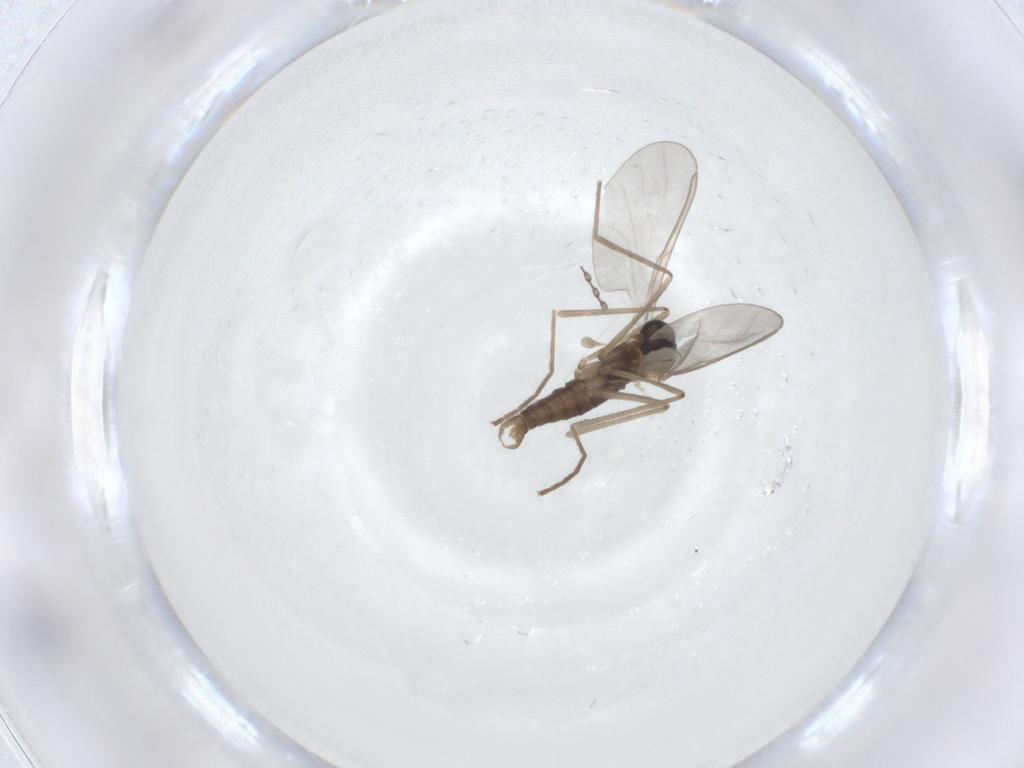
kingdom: Animalia
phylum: Arthropoda
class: Insecta
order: Diptera
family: Cecidomyiidae
